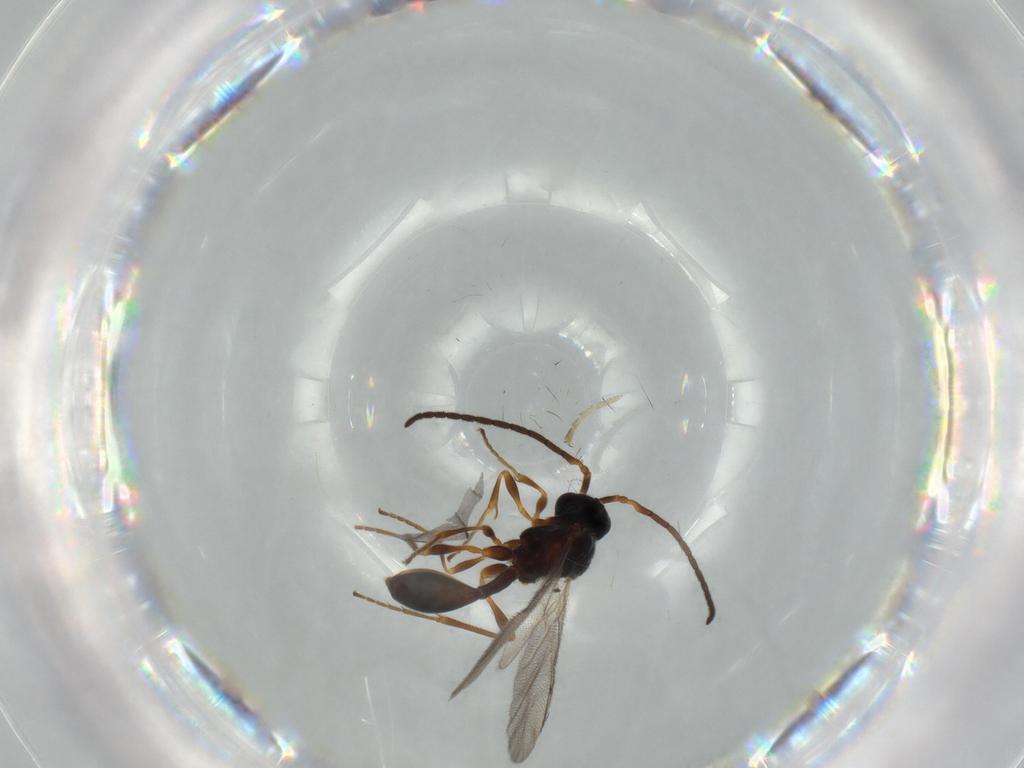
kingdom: Animalia
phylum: Arthropoda
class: Insecta
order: Hymenoptera
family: Diapriidae
